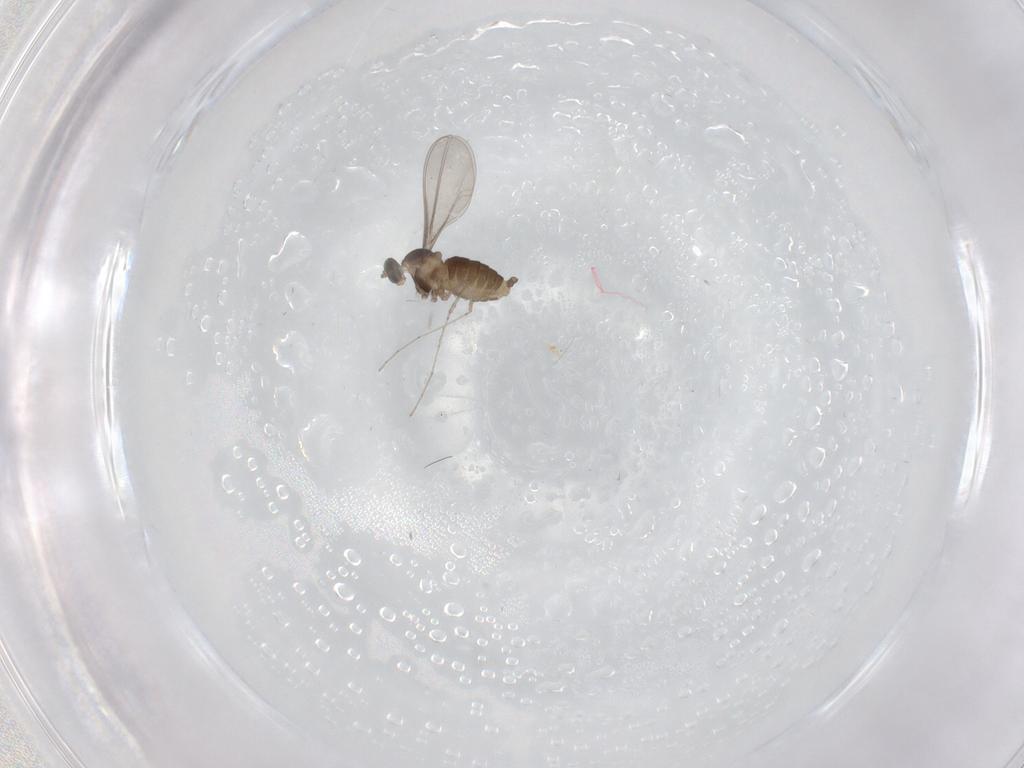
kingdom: Animalia
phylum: Arthropoda
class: Insecta
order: Diptera
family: Cecidomyiidae
